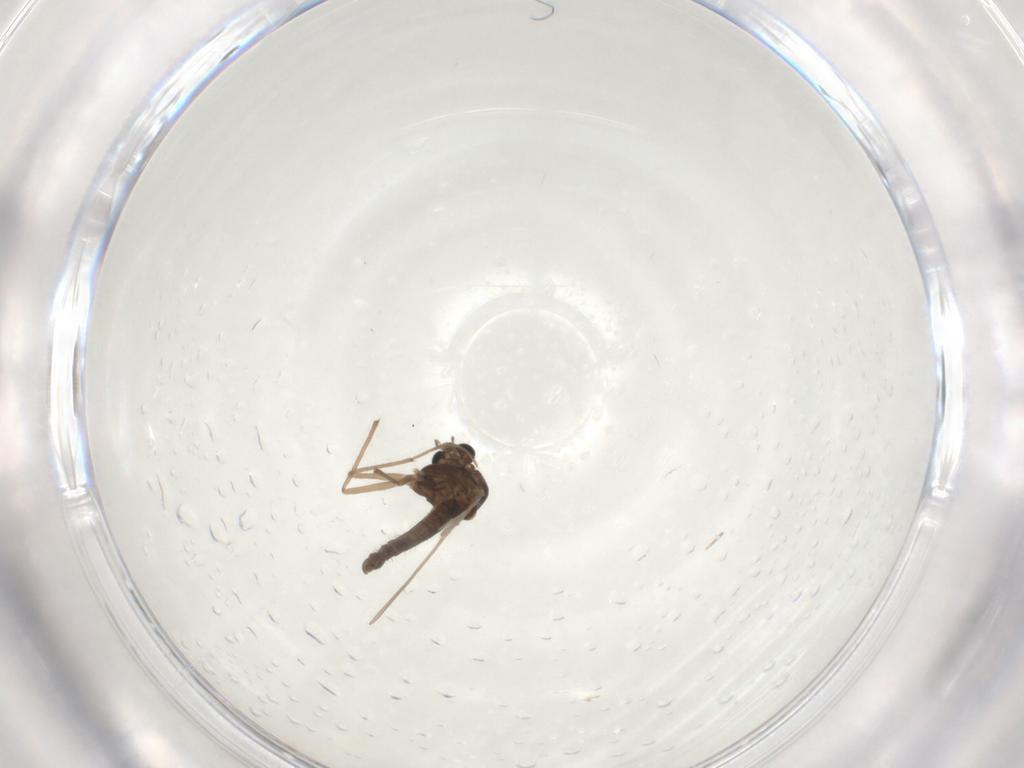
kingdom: Animalia
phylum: Arthropoda
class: Insecta
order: Diptera
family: Chironomidae
